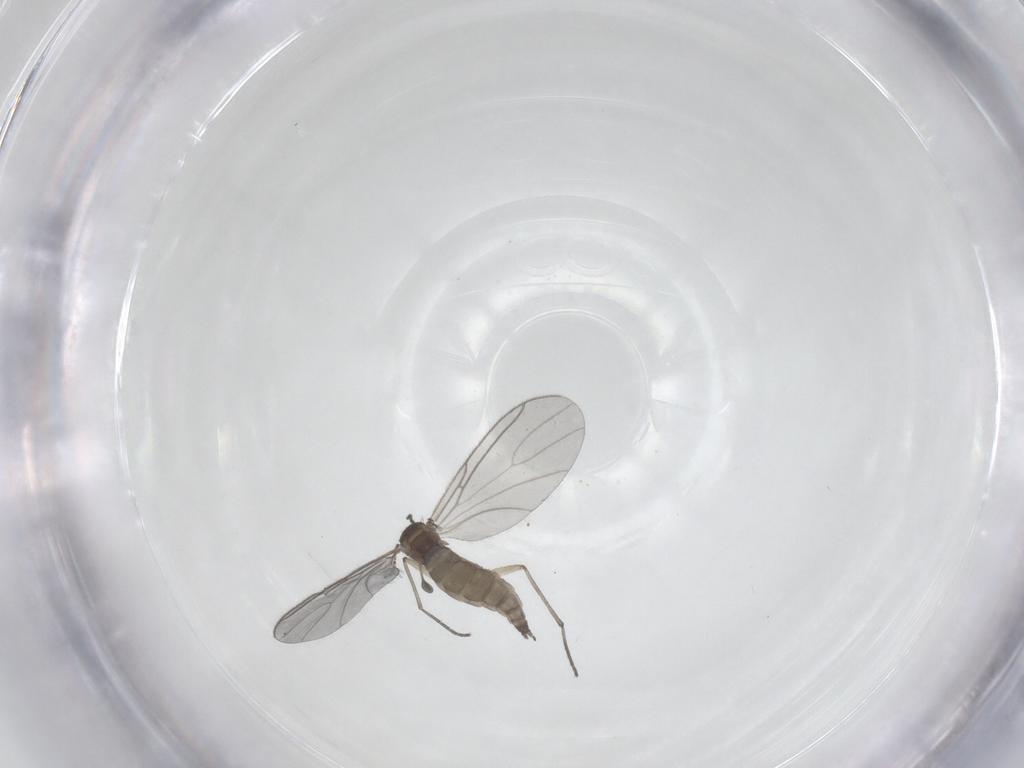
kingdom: Animalia
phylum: Arthropoda
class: Insecta
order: Diptera
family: Sciaridae
